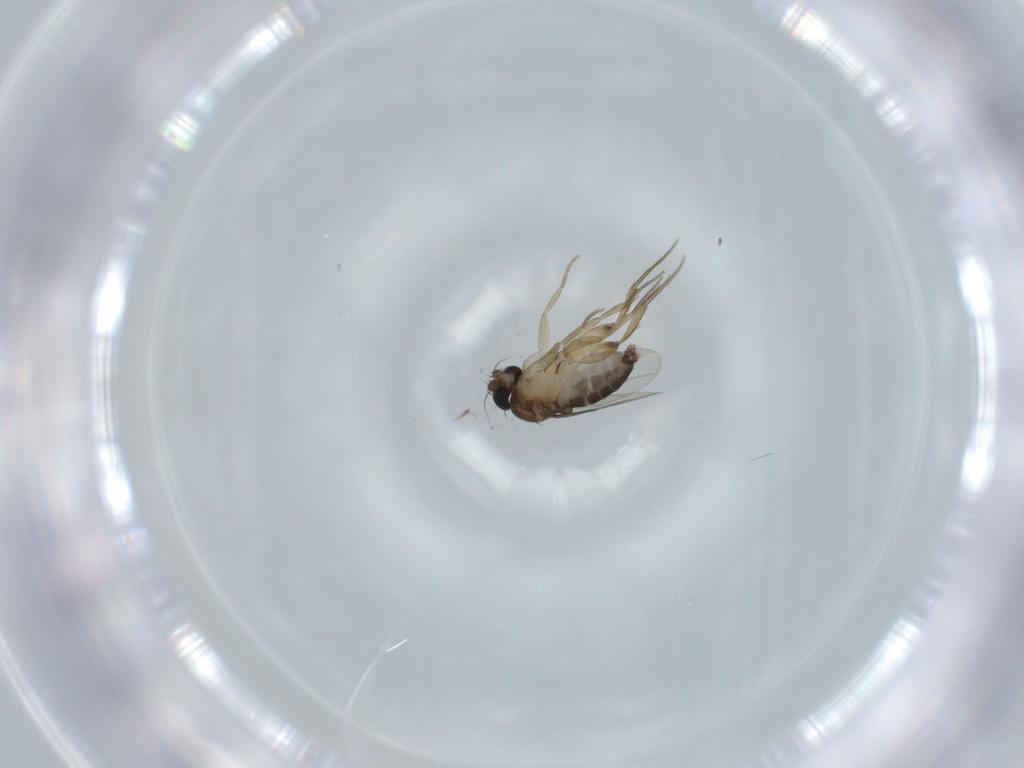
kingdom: Animalia
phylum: Arthropoda
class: Insecta
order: Diptera
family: Phoridae
